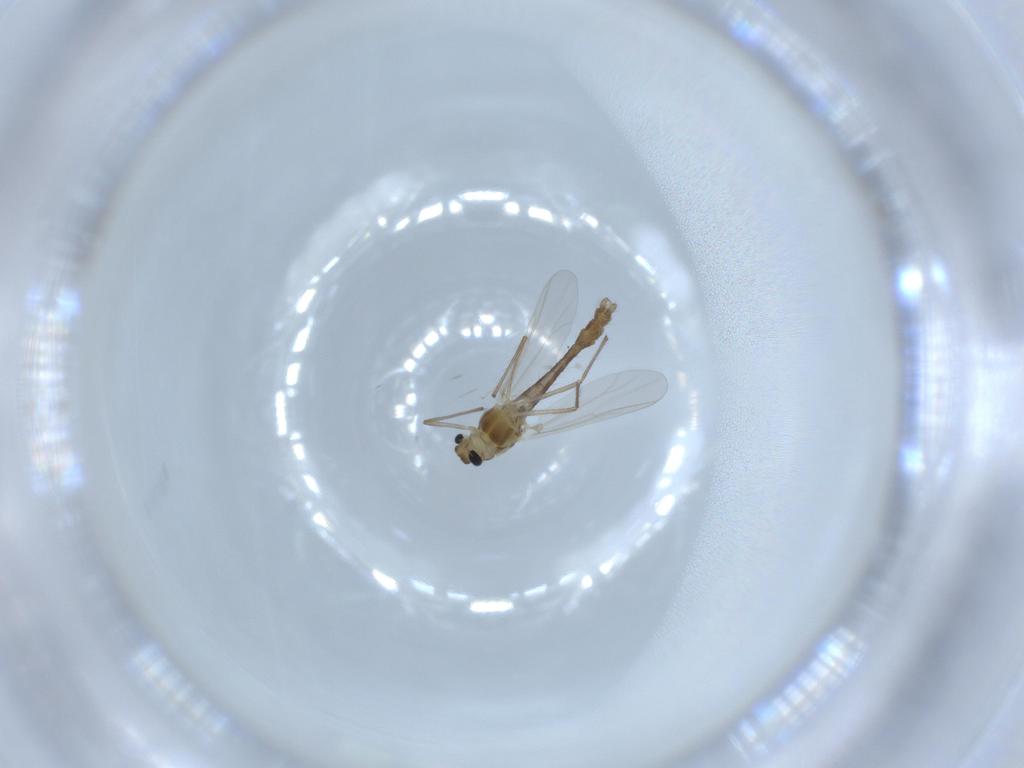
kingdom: Animalia
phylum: Arthropoda
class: Insecta
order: Diptera
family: Chironomidae
